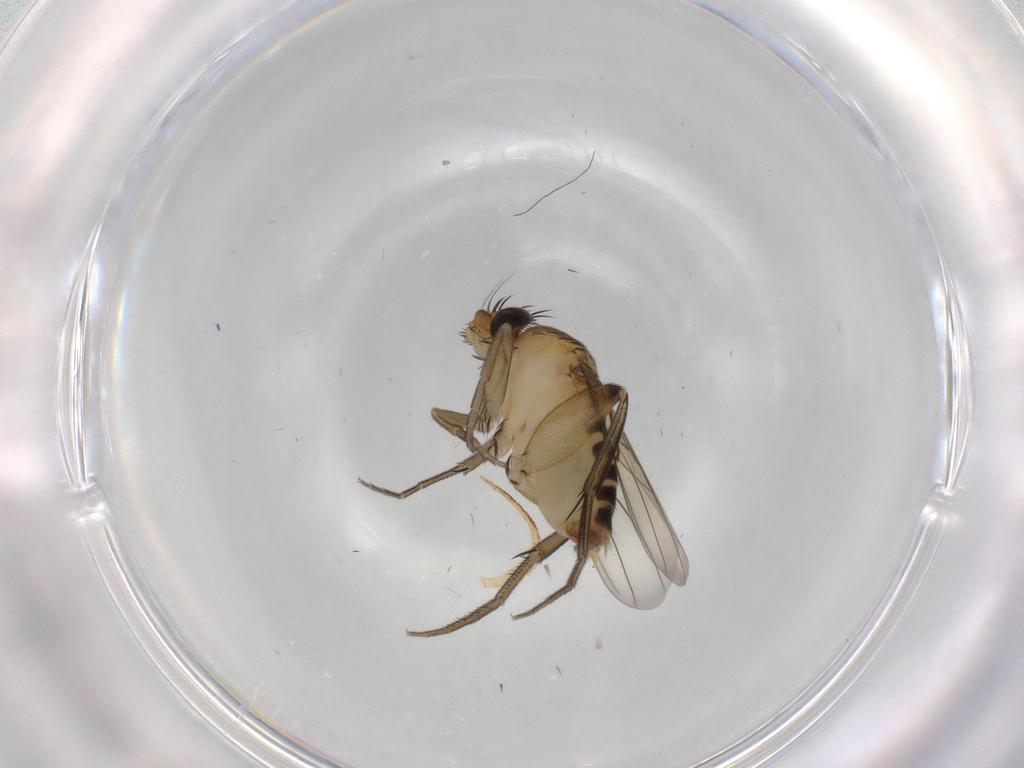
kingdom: Animalia
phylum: Arthropoda
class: Insecta
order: Diptera
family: Phoridae
